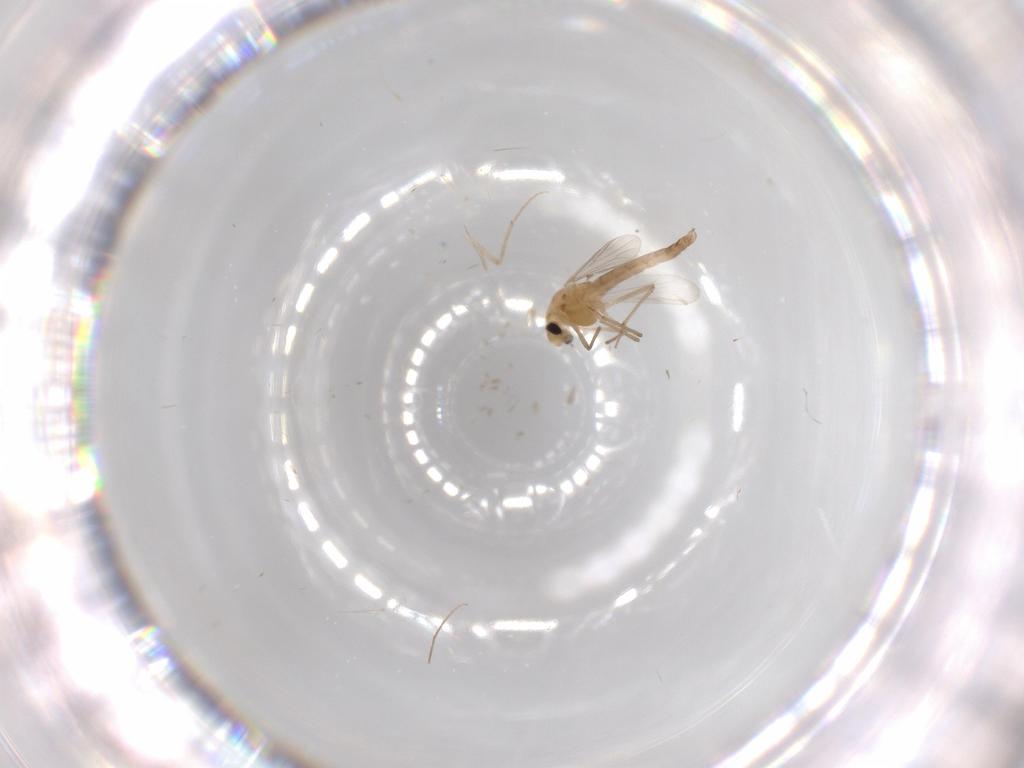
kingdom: Animalia
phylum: Arthropoda
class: Insecta
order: Diptera
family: Chironomidae
